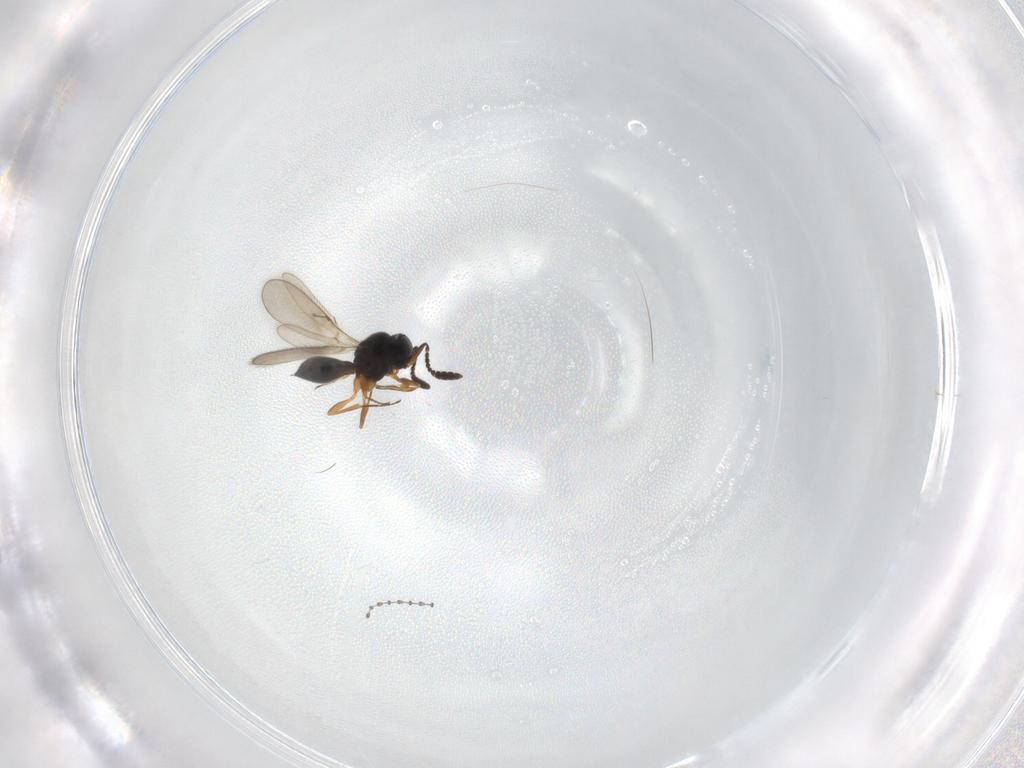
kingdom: Animalia
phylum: Arthropoda
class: Insecta
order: Hymenoptera
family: Scelionidae
